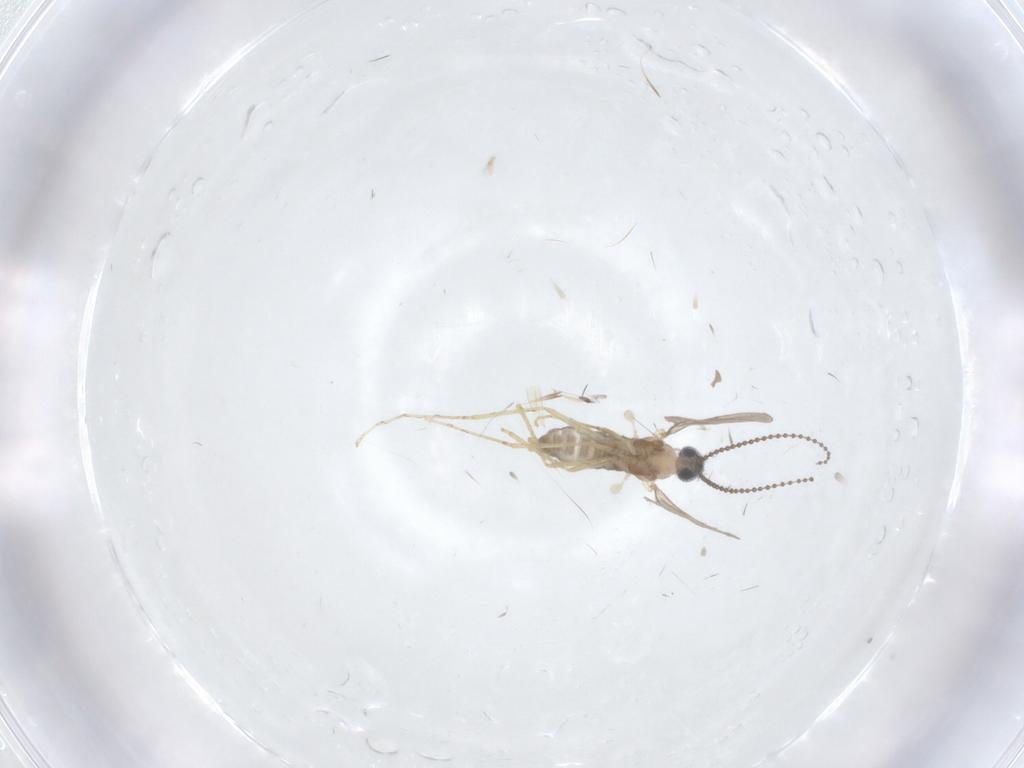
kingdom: Animalia
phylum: Arthropoda
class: Insecta
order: Diptera
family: Cecidomyiidae
